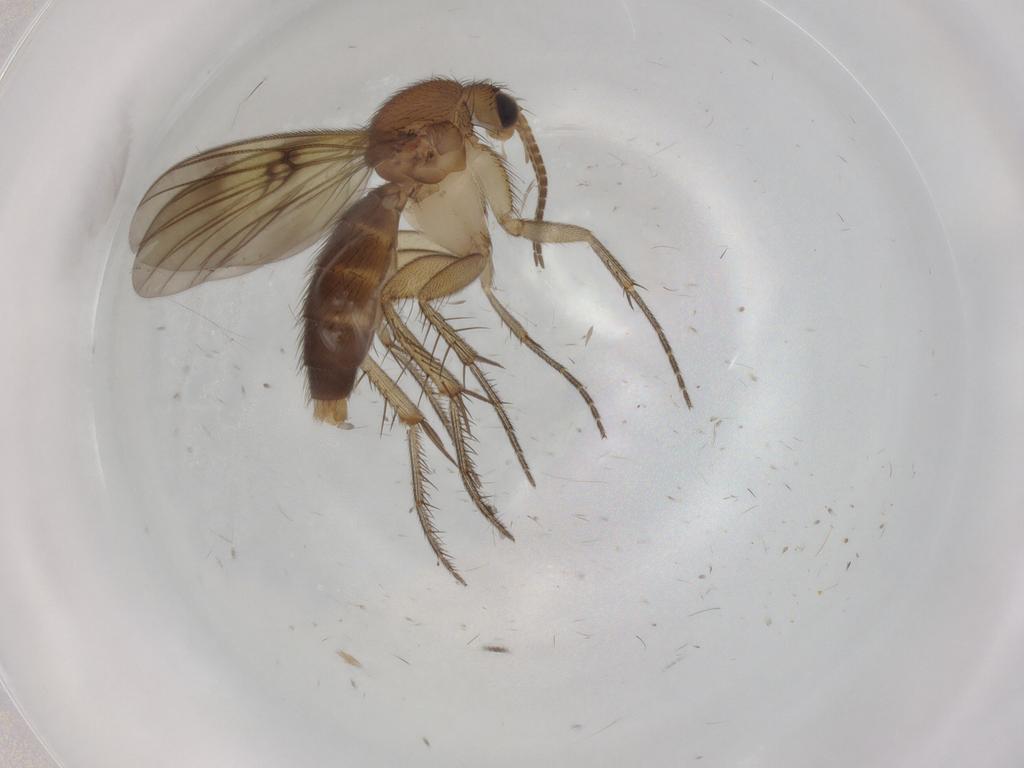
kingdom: Animalia
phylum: Arthropoda
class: Insecta
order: Diptera
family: Sciaridae
